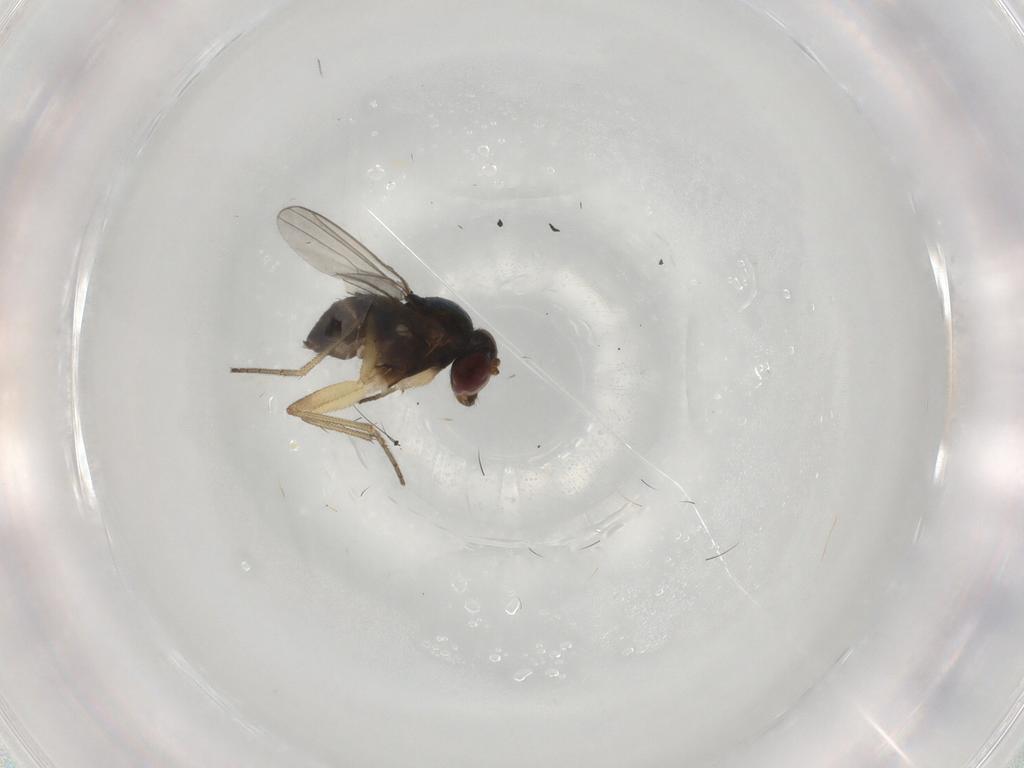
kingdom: Animalia
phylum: Arthropoda
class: Insecta
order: Diptera
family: Dolichopodidae
